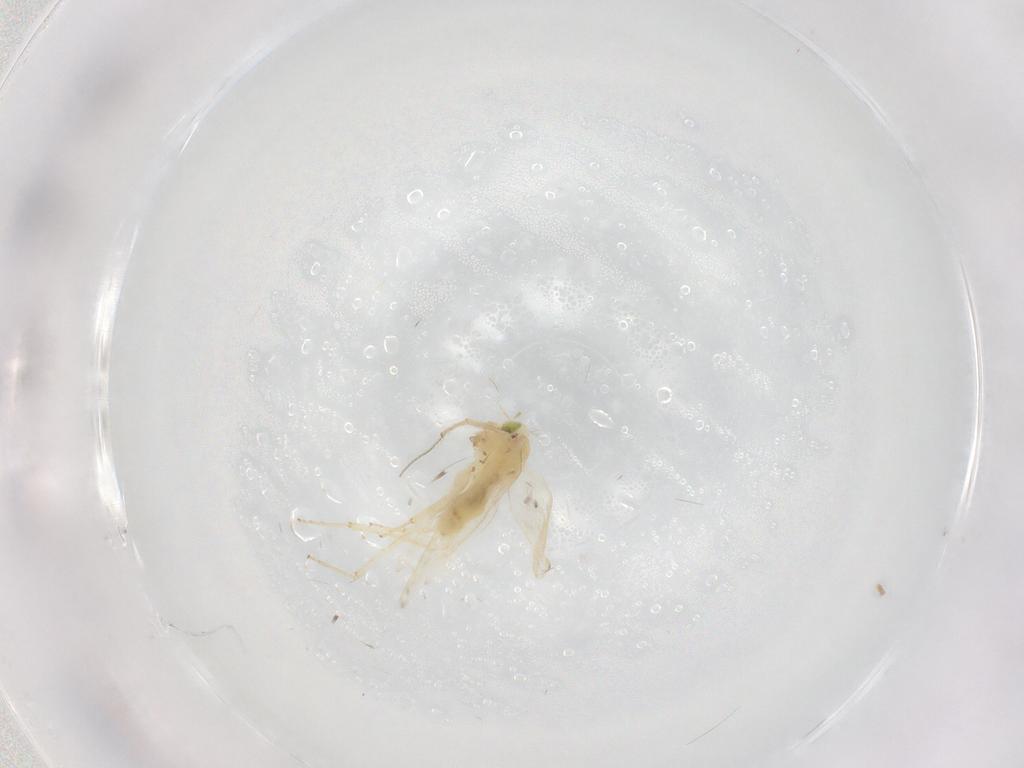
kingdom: Animalia
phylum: Arthropoda
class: Insecta
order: Psocodea
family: Lepidopsocidae
